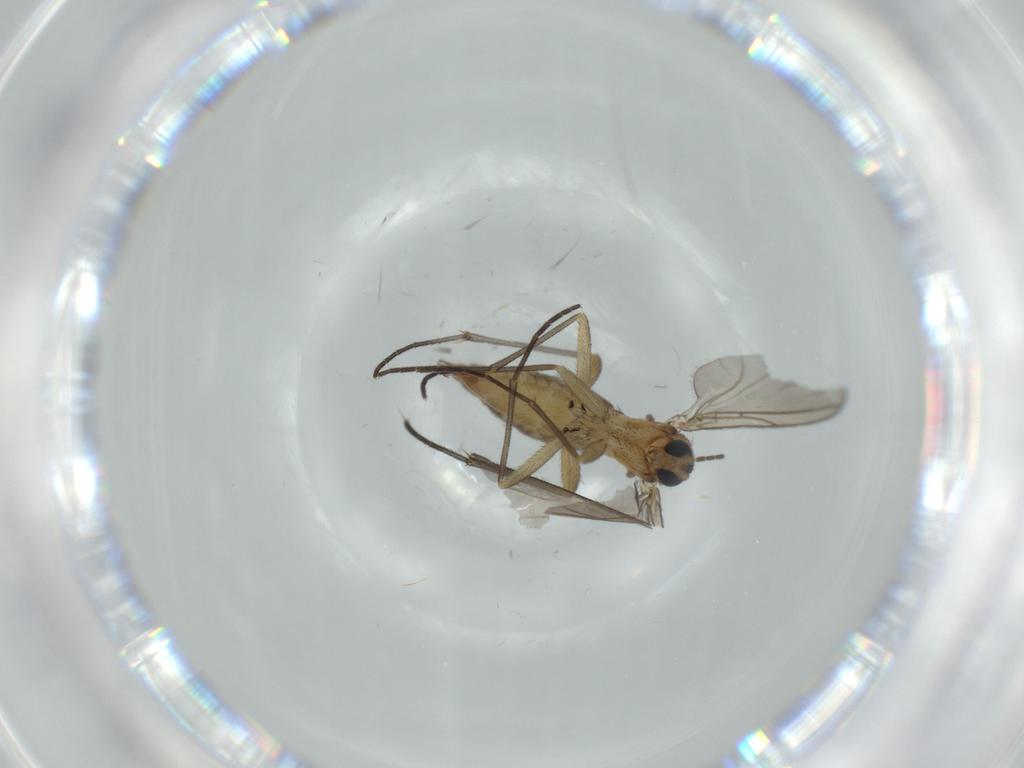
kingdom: Animalia
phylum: Arthropoda
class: Insecta
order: Diptera
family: Sciaridae
